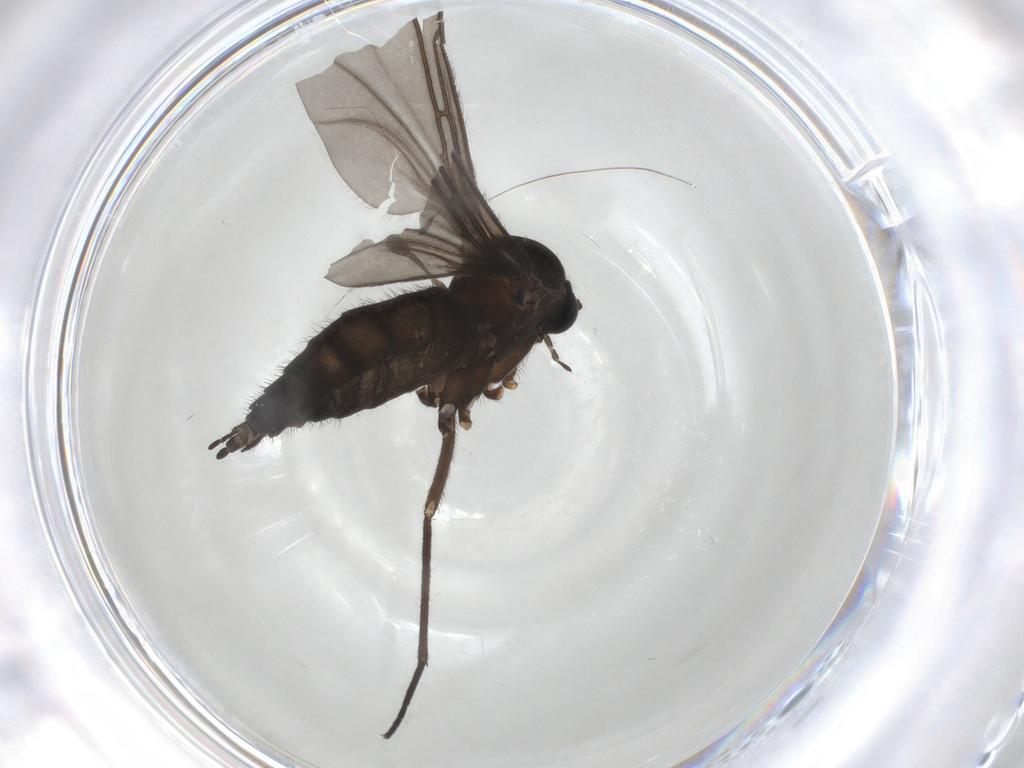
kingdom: Animalia
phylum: Arthropoda
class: Insecta
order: Diptera
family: Sciaridae
